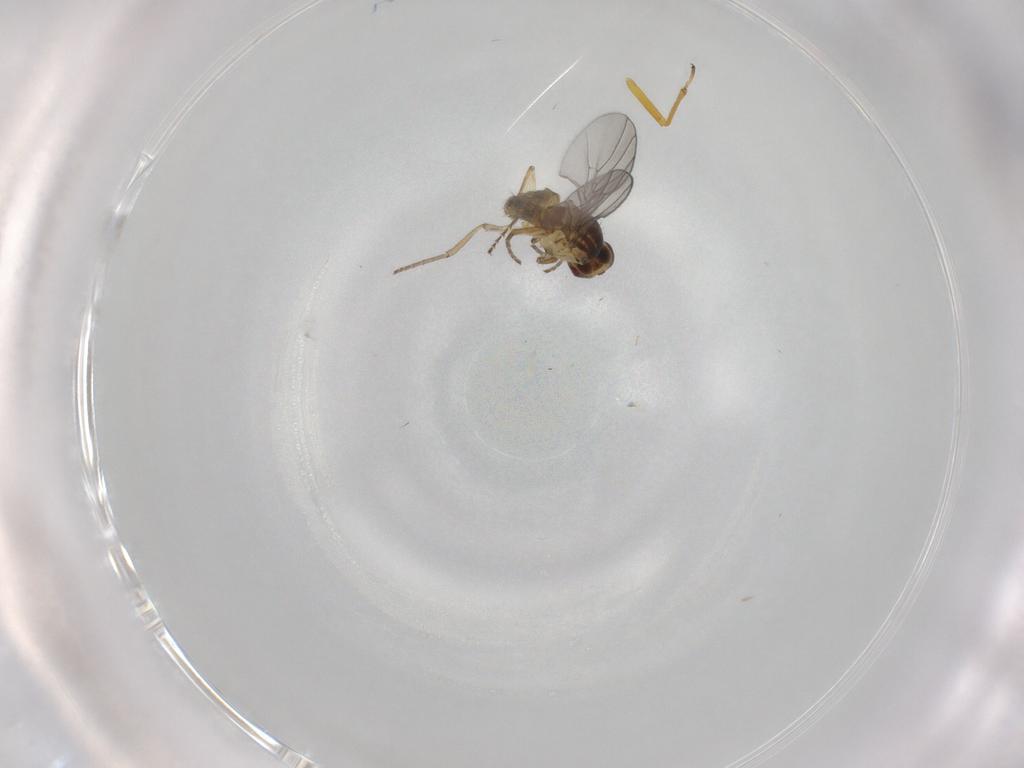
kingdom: Animalia
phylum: Arthropoda
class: Insecta
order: Diptera
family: Agromyzidae
